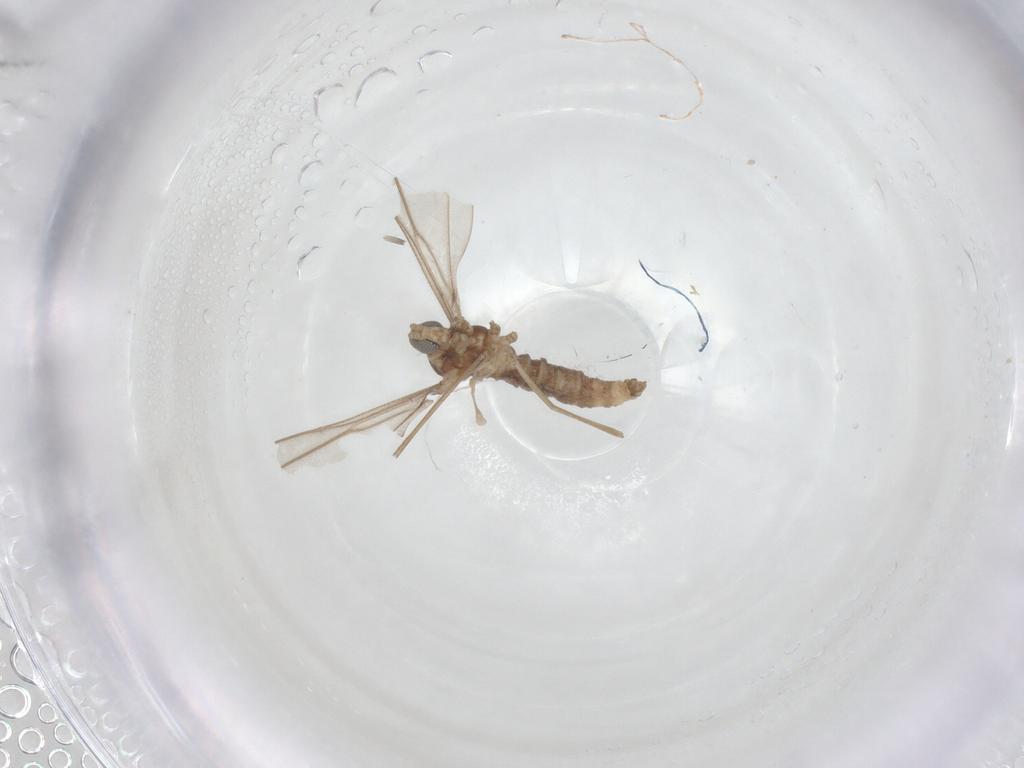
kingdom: Animalia
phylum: Arthropoda
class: Insecta
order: Diptera
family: Cecidomyiidae
